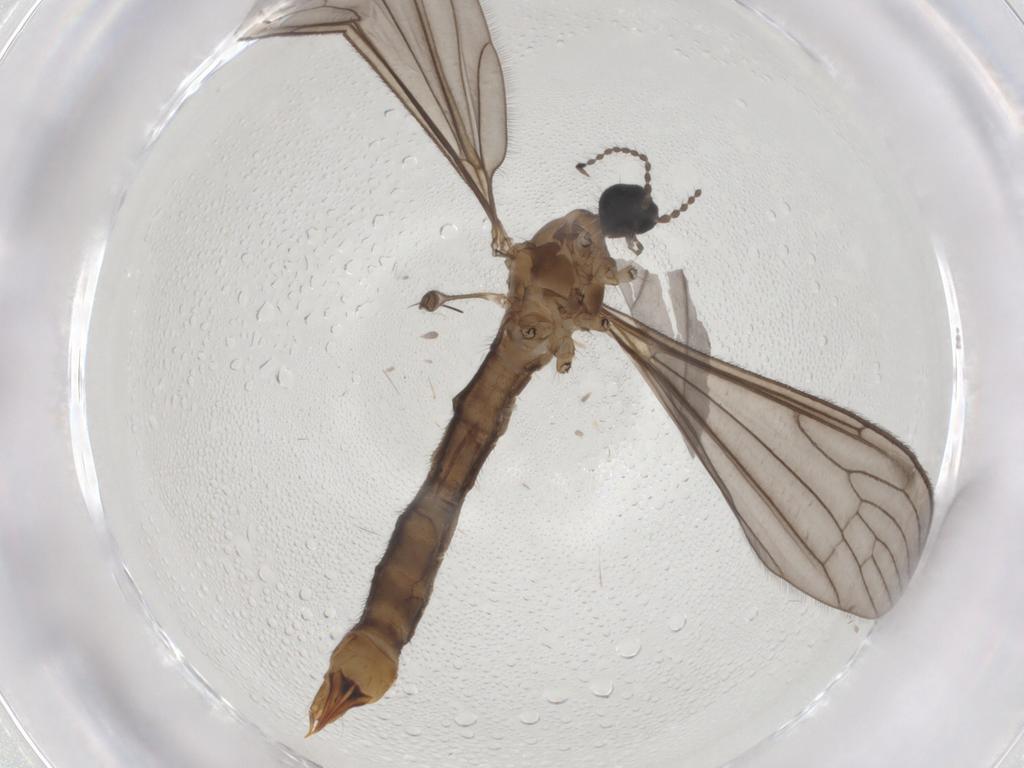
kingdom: Animalia
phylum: Arthropoda
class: Insecta
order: Diptera
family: Limoniidae
